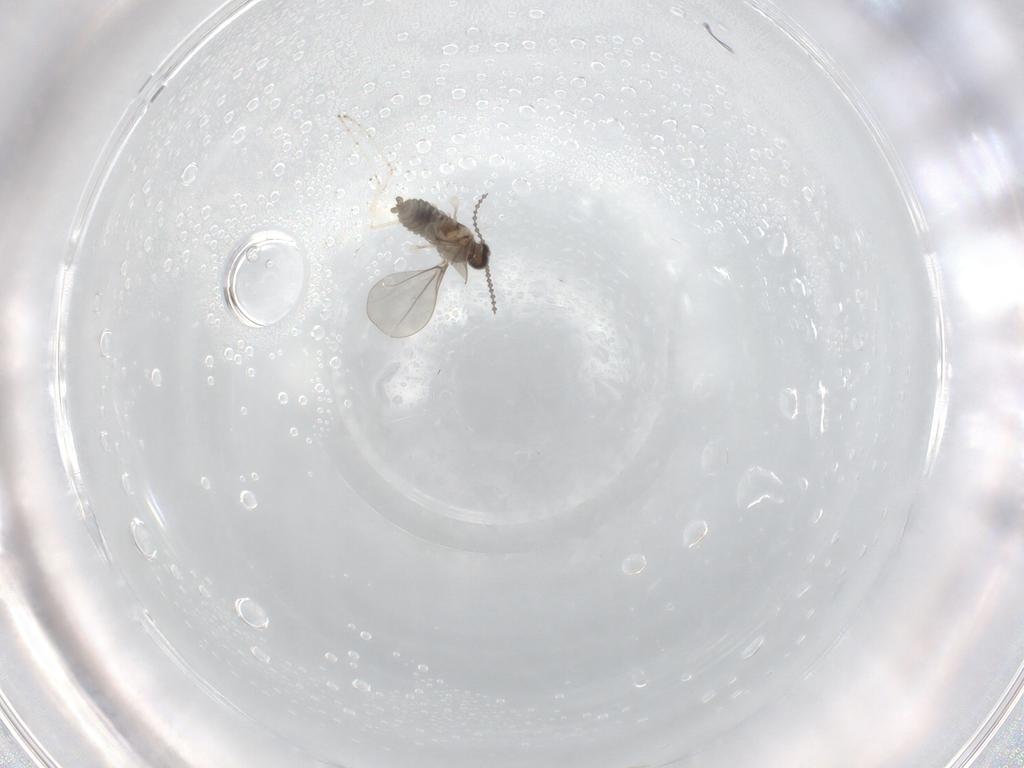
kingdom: Animalia
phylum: Arthropoda
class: Insecta
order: Diptera
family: Cecidomyiidae
